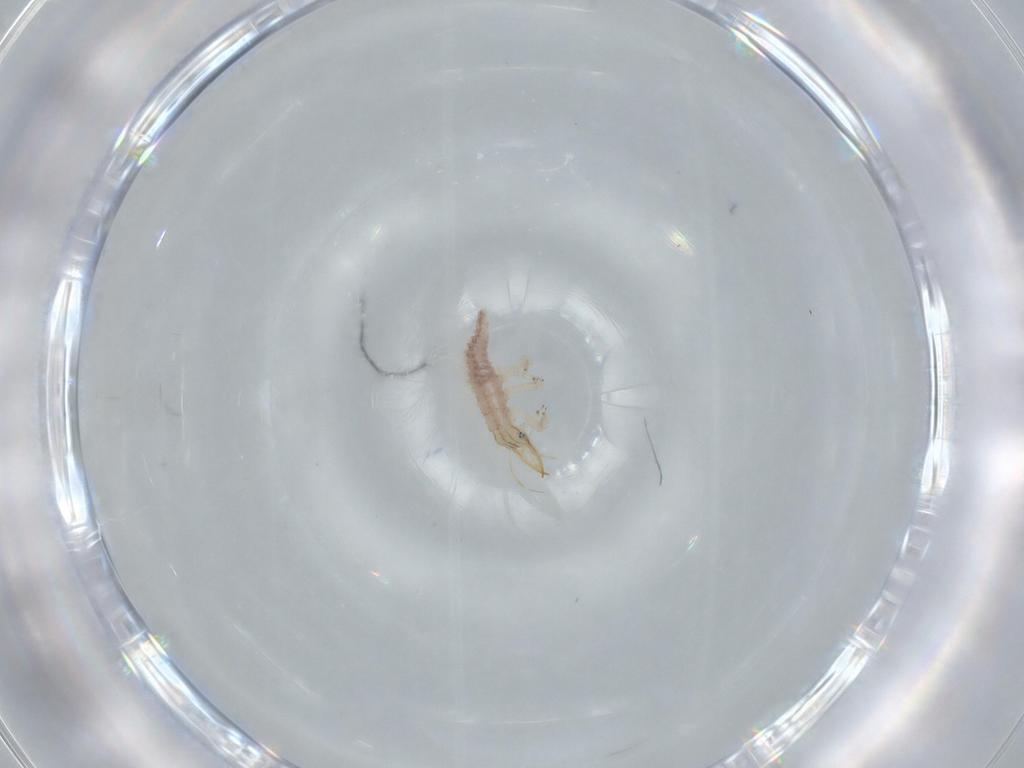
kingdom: Animalia
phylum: Arthropoda
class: Insecta
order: Neuroptera
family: Chrysopidae
